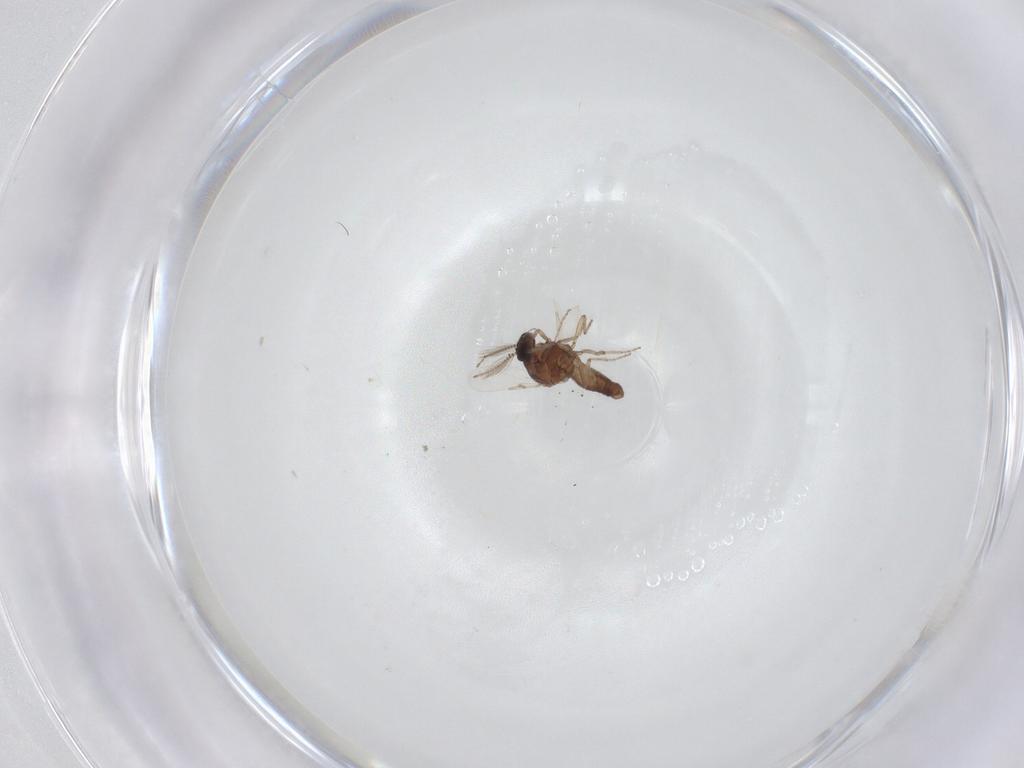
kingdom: Animalia
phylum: Arthropoda
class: Insecta
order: Diptera
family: Ceratopogonidae
